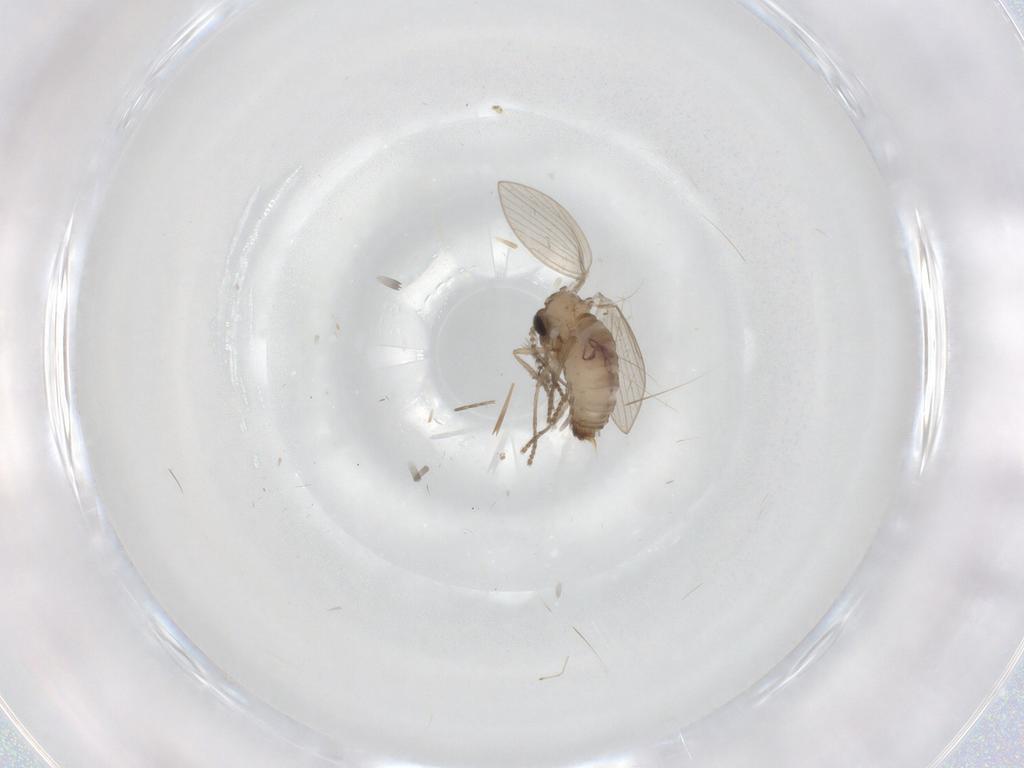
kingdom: Animalia
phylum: Arthropoda
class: Insecta
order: Diptera
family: Psychodidae
